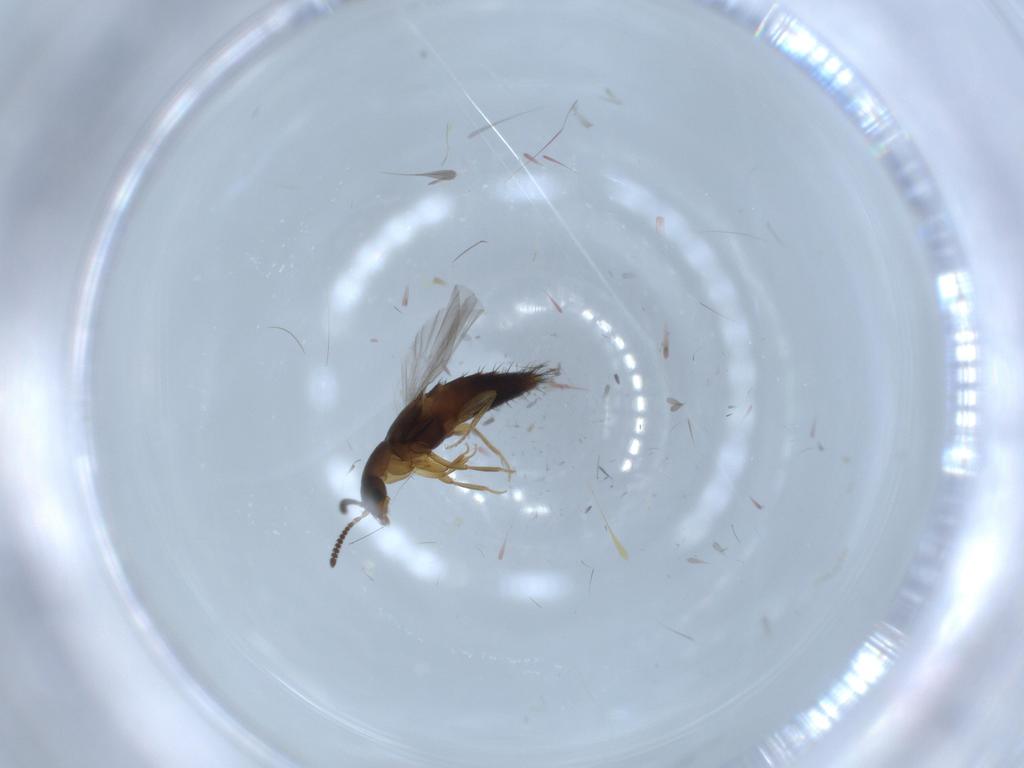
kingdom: Animalia
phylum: Arthropoda
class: Insecta
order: Coleoptera
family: Staphylinidae
